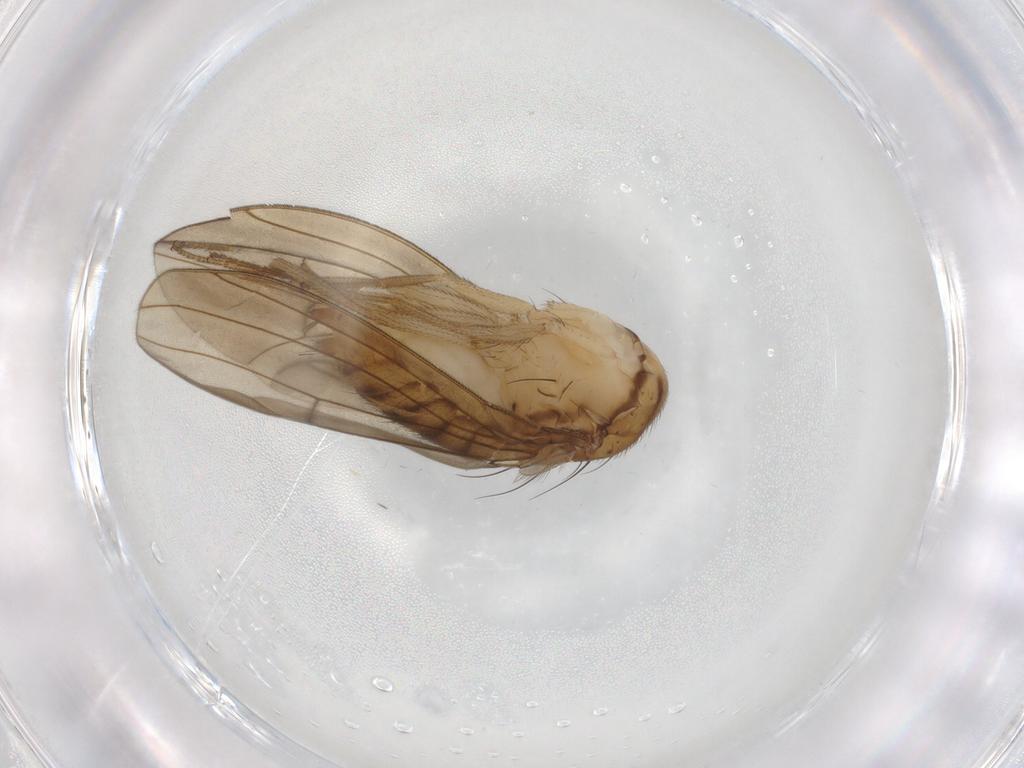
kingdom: Animalia
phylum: Arthropoda
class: Insecta
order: Diptera
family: Drosophilidae
